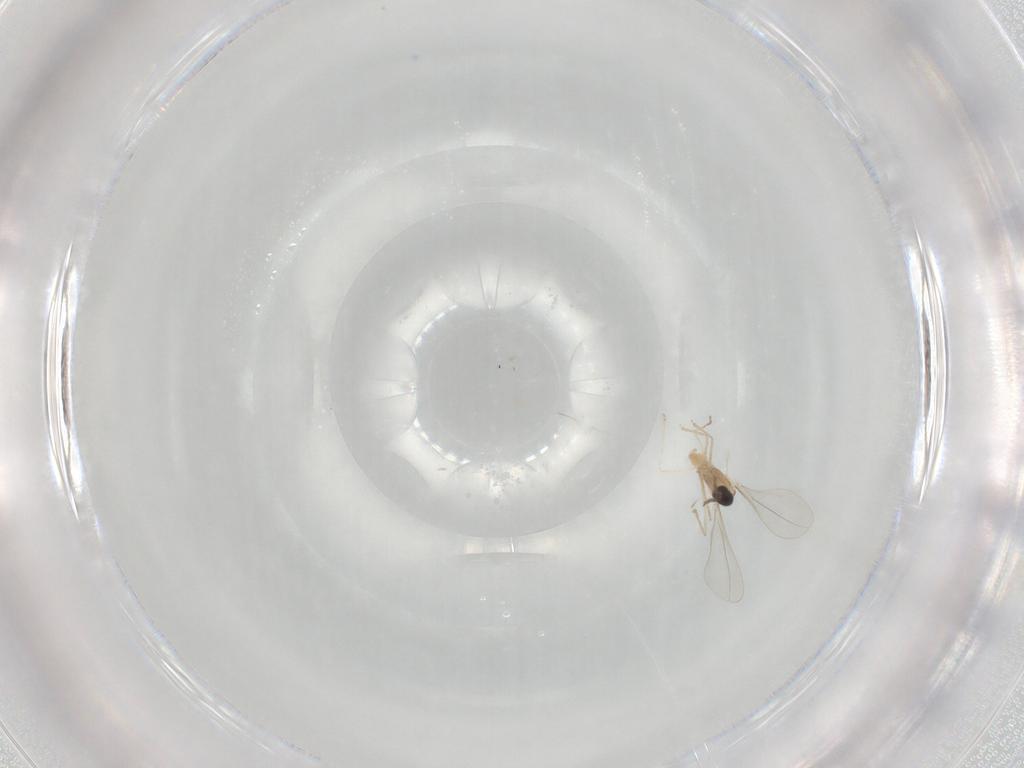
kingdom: Animalia
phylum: Arthropoda
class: Insecta
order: Diptera
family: Cecidomyiidae
